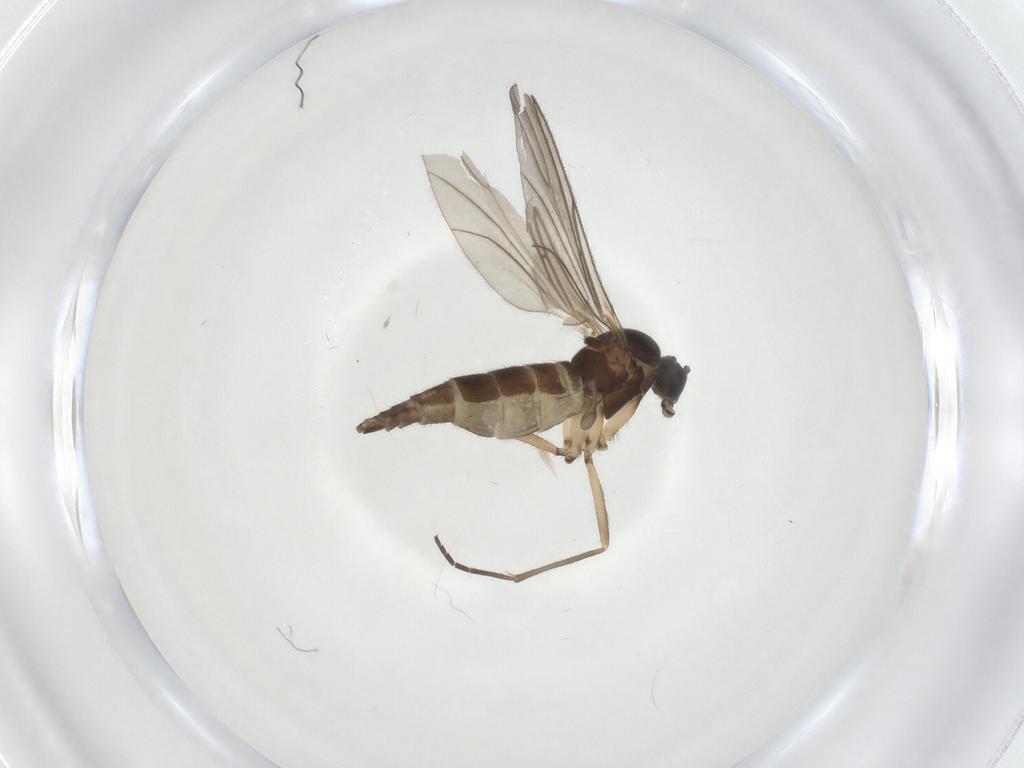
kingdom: Animalia
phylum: Arthropoda
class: Insecta
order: Diptera
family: Sciaridae
